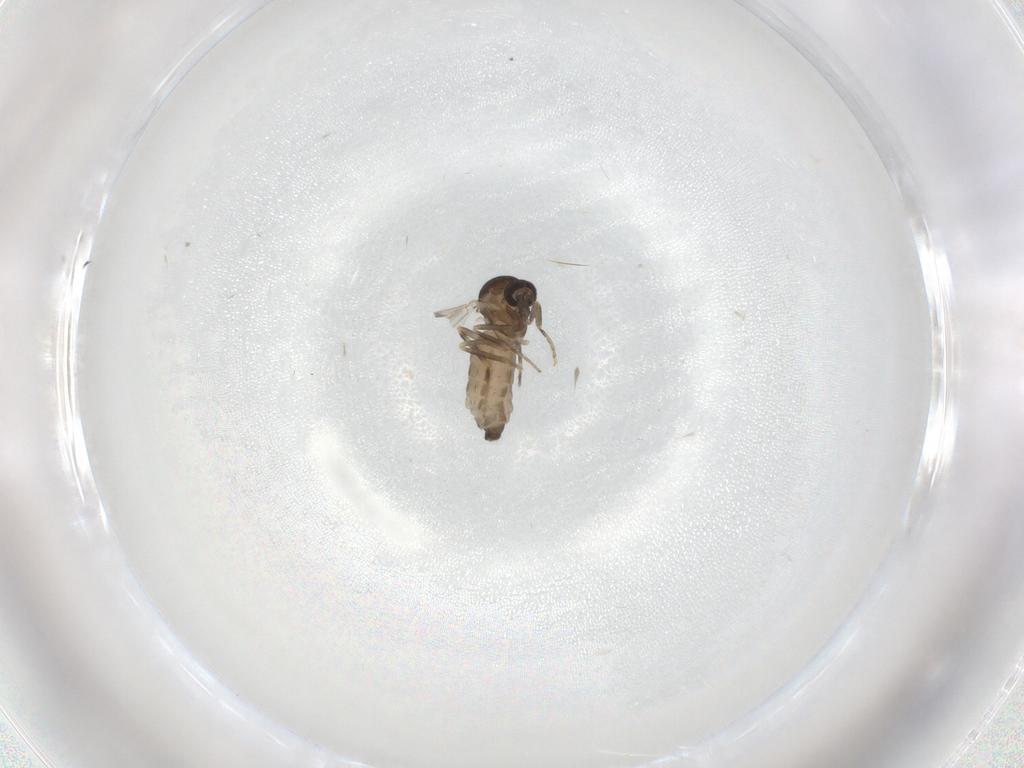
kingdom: Animalia
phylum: Arthropoda
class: Insecta
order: Diptera
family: Ceratopogonidae
